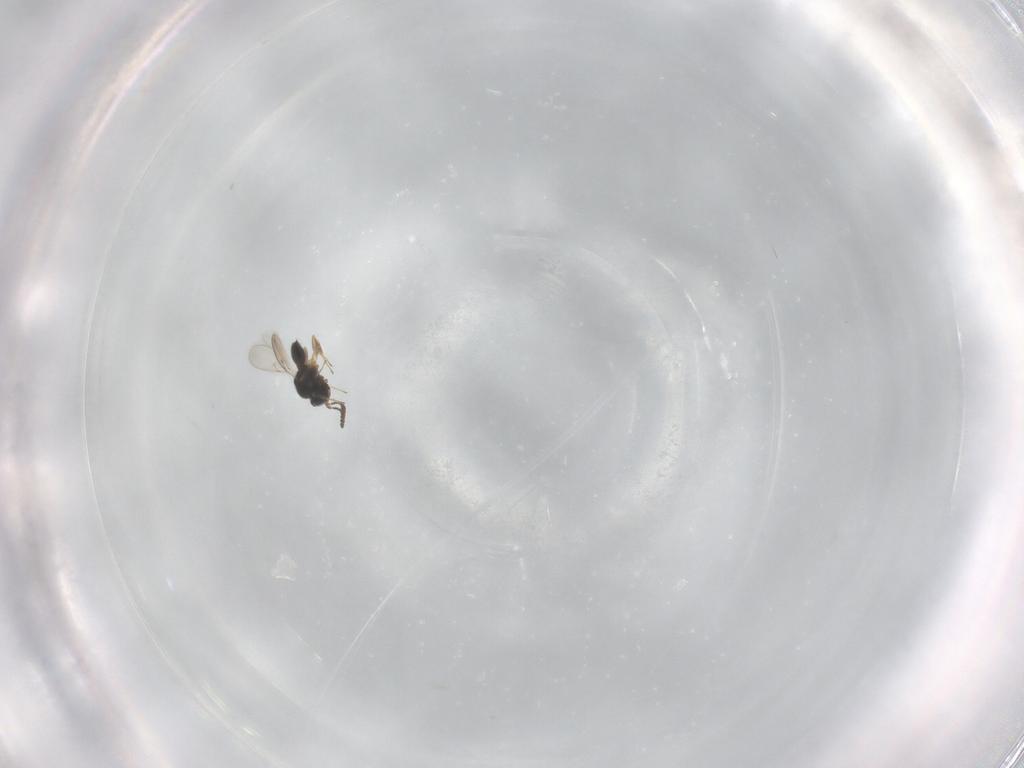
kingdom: Animalia
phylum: Arthropoda
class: Insecta
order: Hymenoptera
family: Scelionidae
